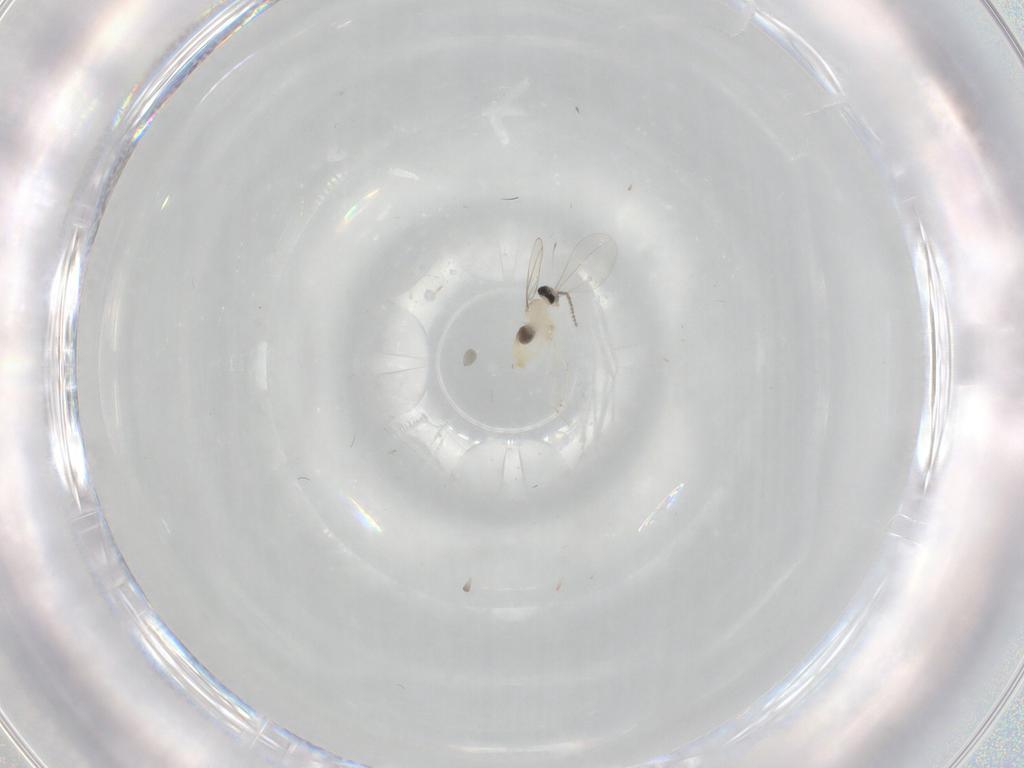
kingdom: Animalia
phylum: Arthropoda
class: Insecta
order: Diptera
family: Cecidomyiidae
